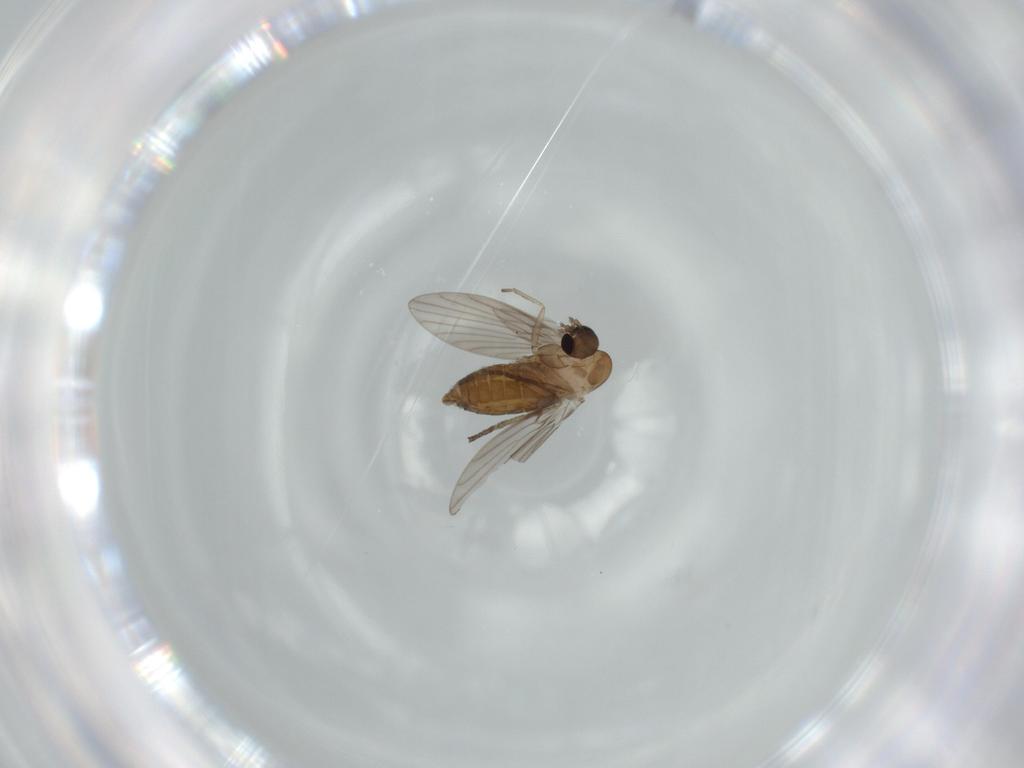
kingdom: Animalia
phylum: Arthropoda
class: Insecta
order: Diptera
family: Psychodidae
